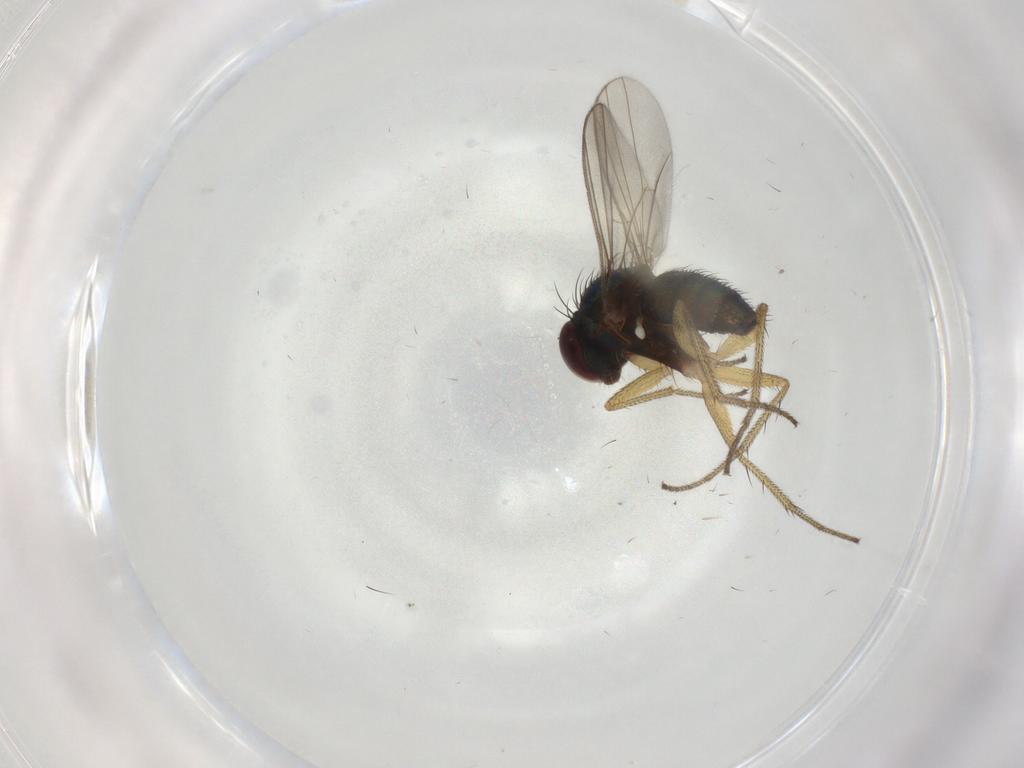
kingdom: Animalia
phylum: Arthropoda
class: Insecta
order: Diptera
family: Dolichopodidae
